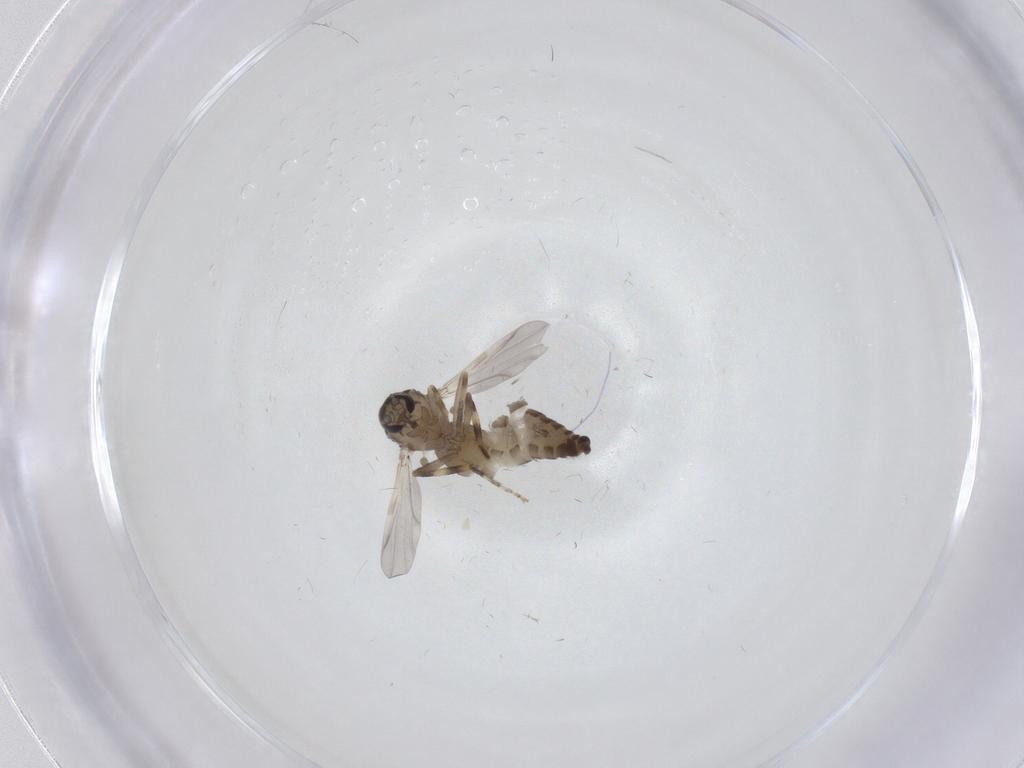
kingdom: Animalia
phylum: Arthropoda
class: Insecta
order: Diptera
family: Ceratopogonidae
